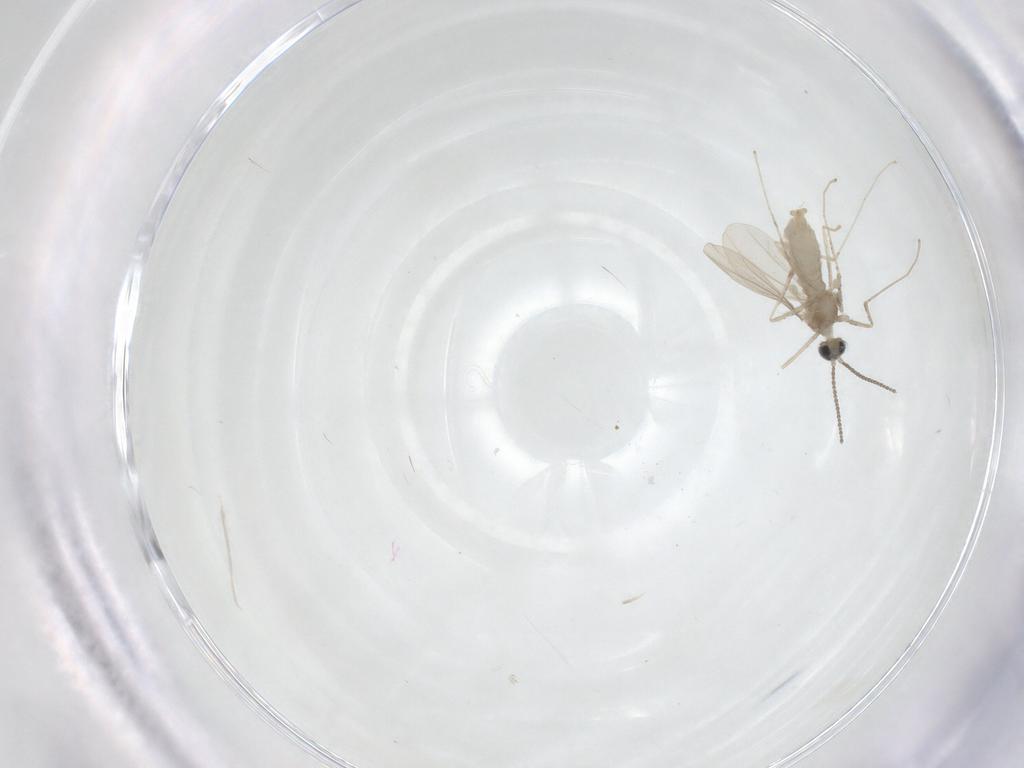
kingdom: Animalia
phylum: Arthropoda
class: Insecta
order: Diptera
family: Cecidomyiidae
